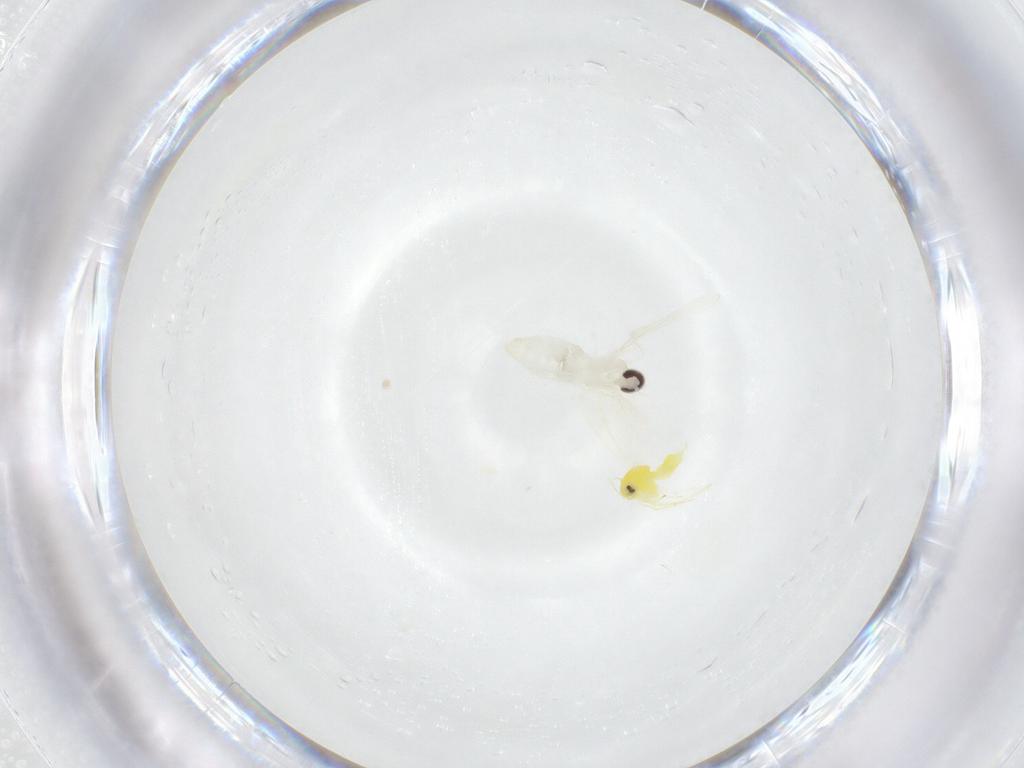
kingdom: Animalia
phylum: Arthropoda
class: Insecta
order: Diptera
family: Cecidomyiidae
